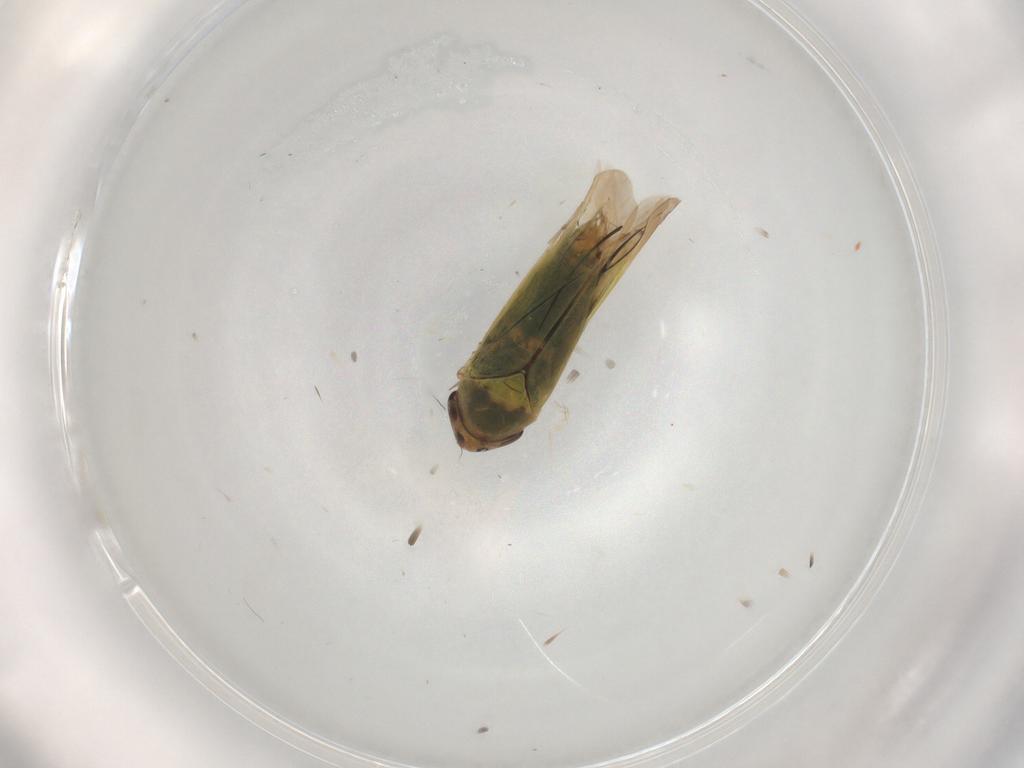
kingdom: Animalia
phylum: Arthropoda
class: Insecta
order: Hemiptera
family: Cicadellidae
